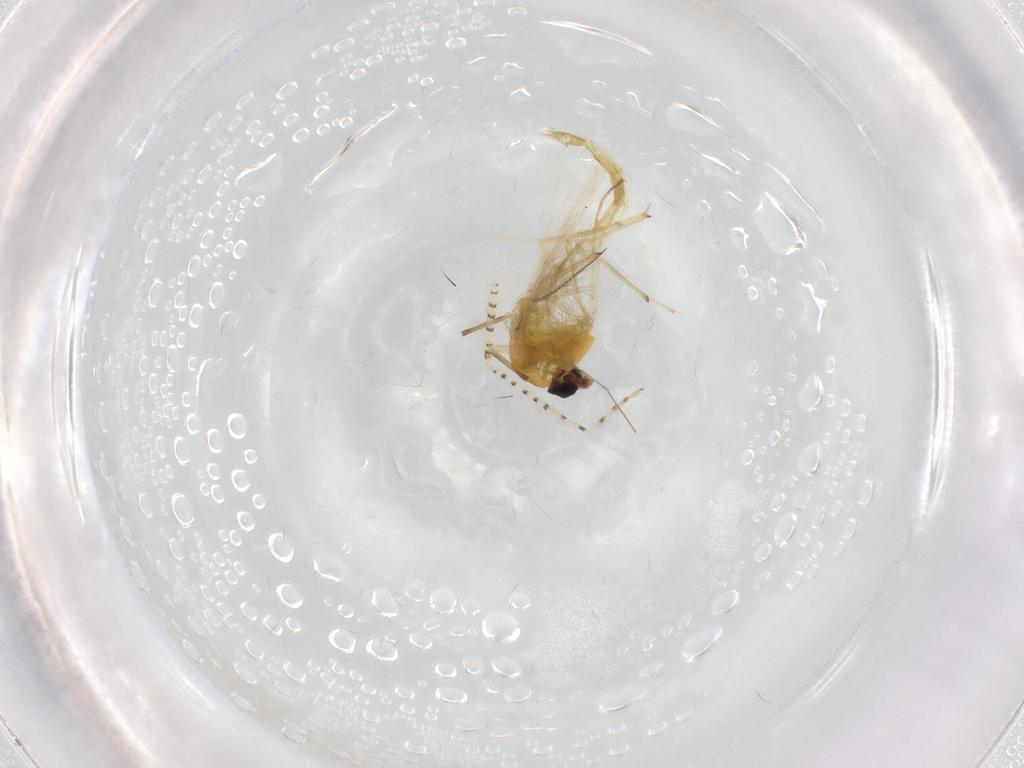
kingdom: Animalia
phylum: Arthropoda
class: Insecta
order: Diptera
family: Chironomidae
